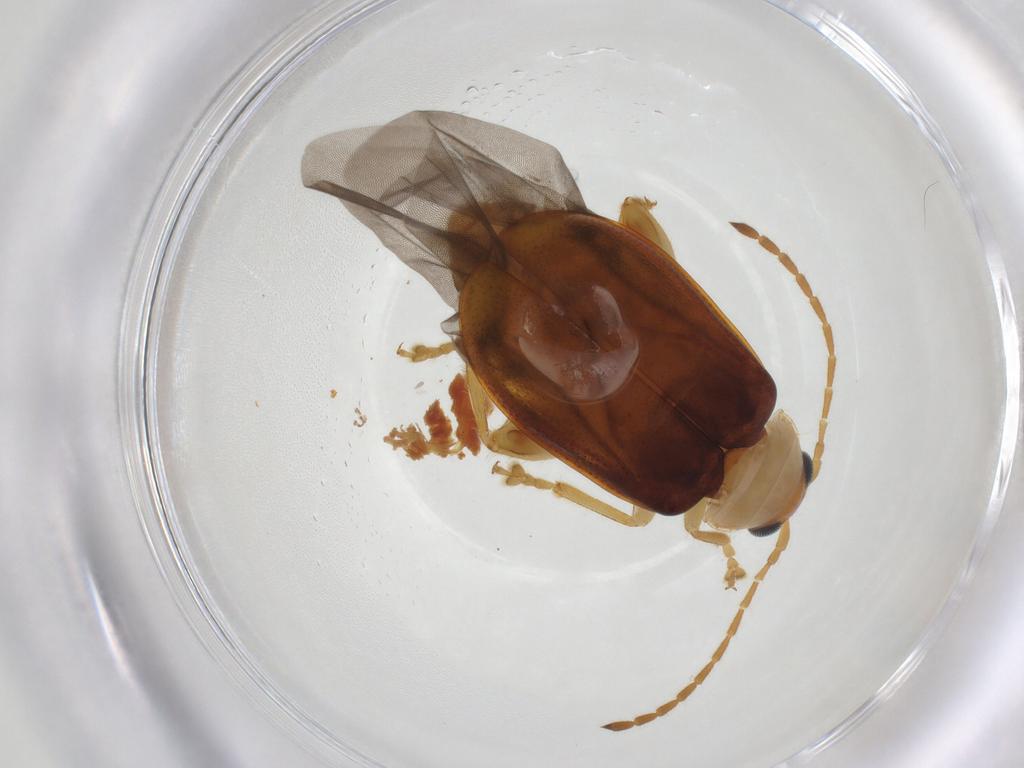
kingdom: Animalia
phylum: Arthropoda
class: Insecta
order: Coleoptera
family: Chrysomelidae
